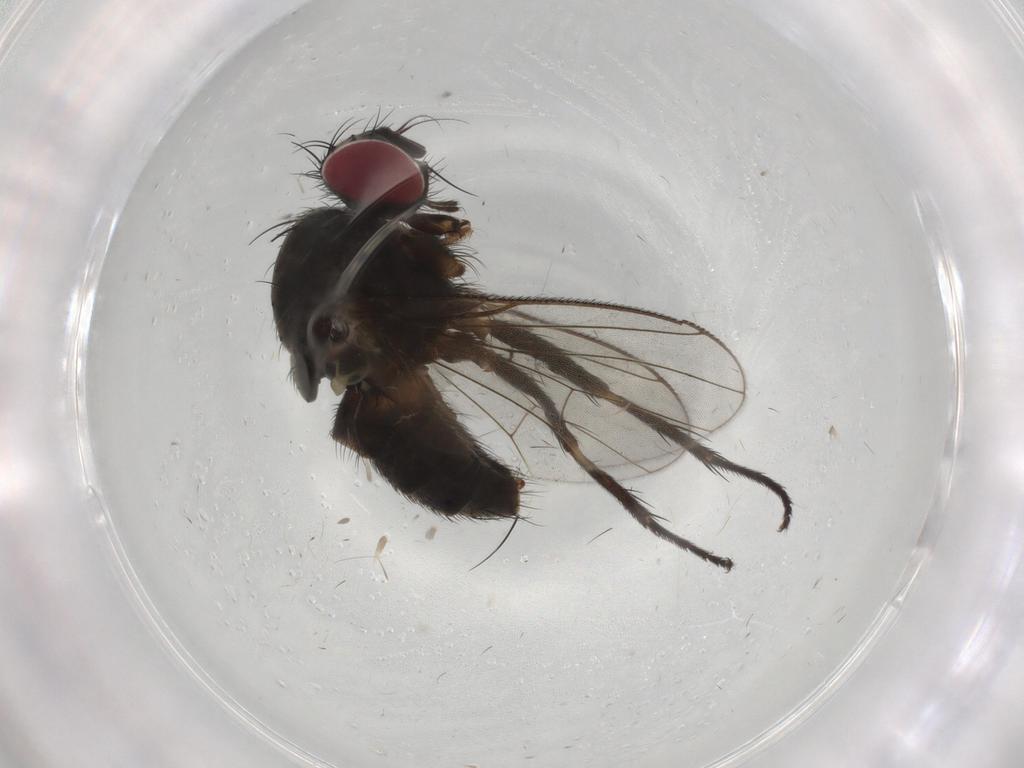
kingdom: Animalia
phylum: Arthropoda
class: Insecta
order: Diptera
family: Muscidae
